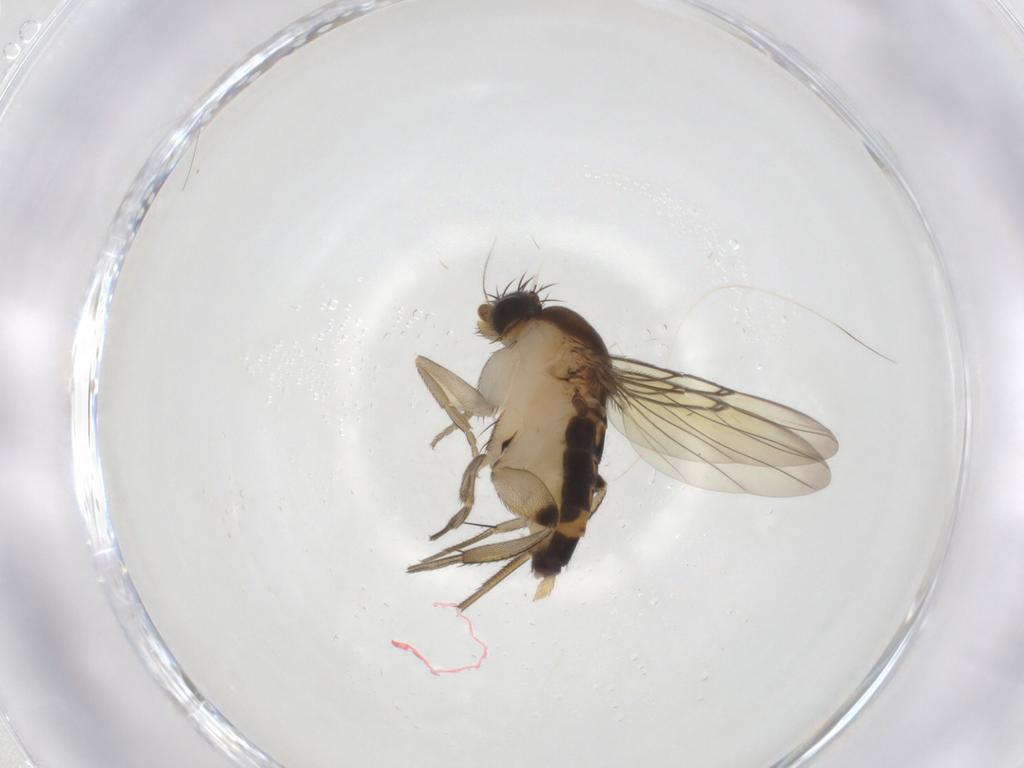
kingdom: Animalia
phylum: Arthropoda
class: Insecta
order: Diptera
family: Phoridae
